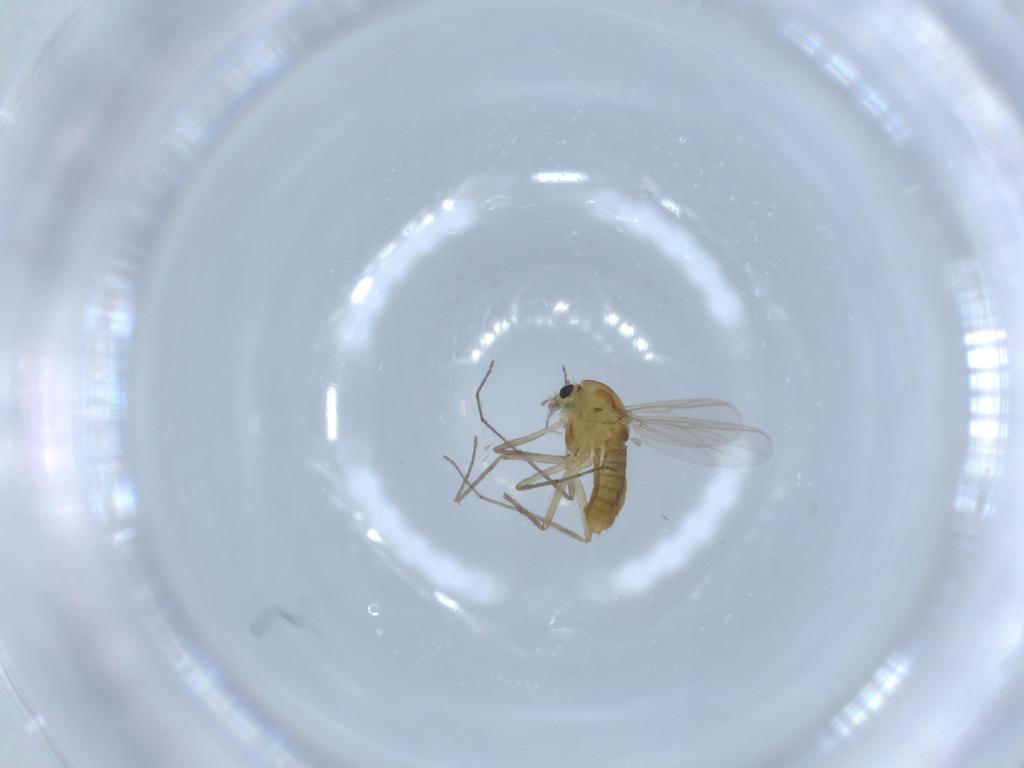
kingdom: Animalia
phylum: Arthropoda
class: Insecta
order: Diptera
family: Chironomidae
